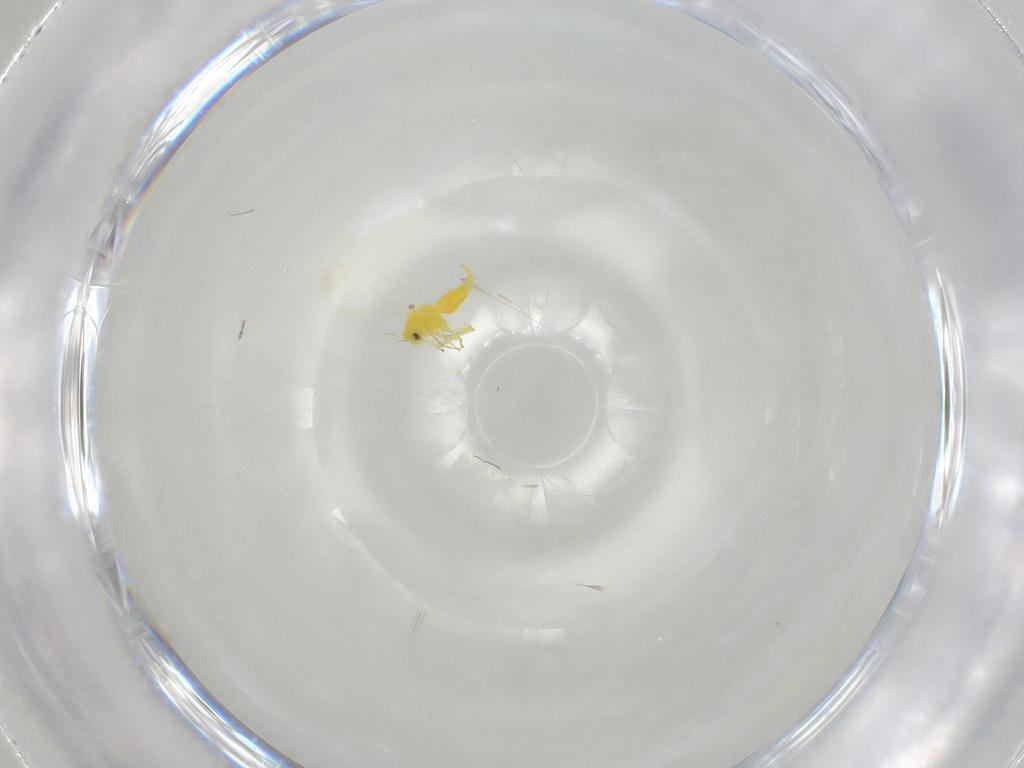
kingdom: Animalia
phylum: Arthropoda
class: Insecta
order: Hemiptera
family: Aleyrodidae
